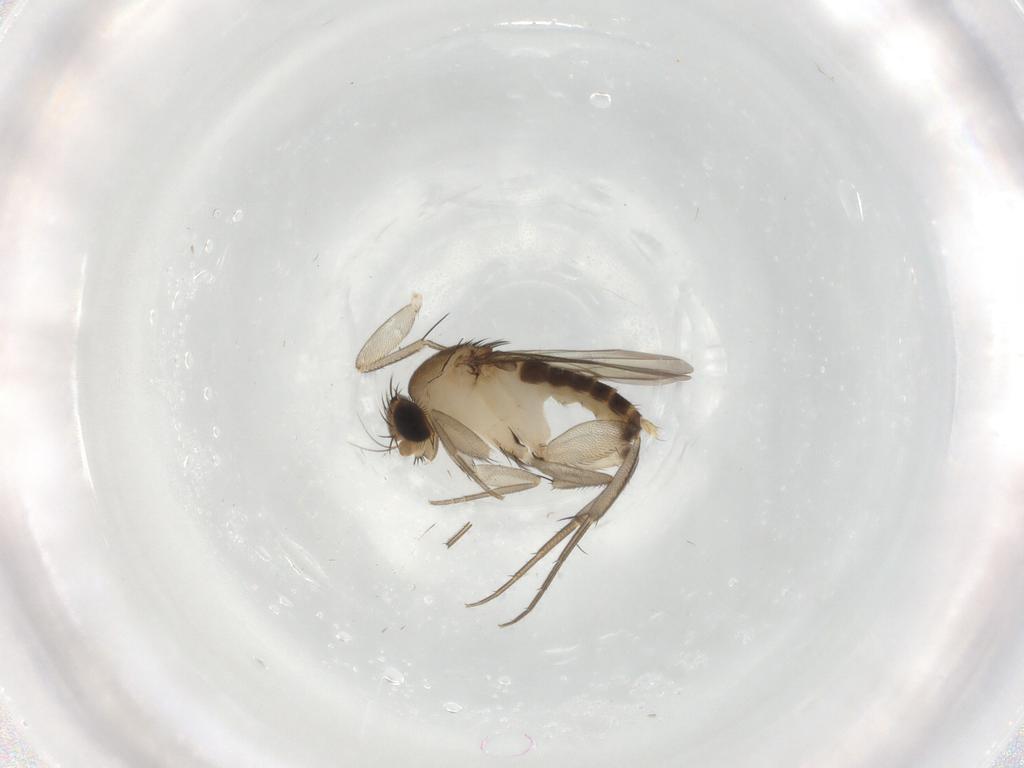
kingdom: Animalia
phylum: Arthropoda
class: Insecta
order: Diptera
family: Phoridae
